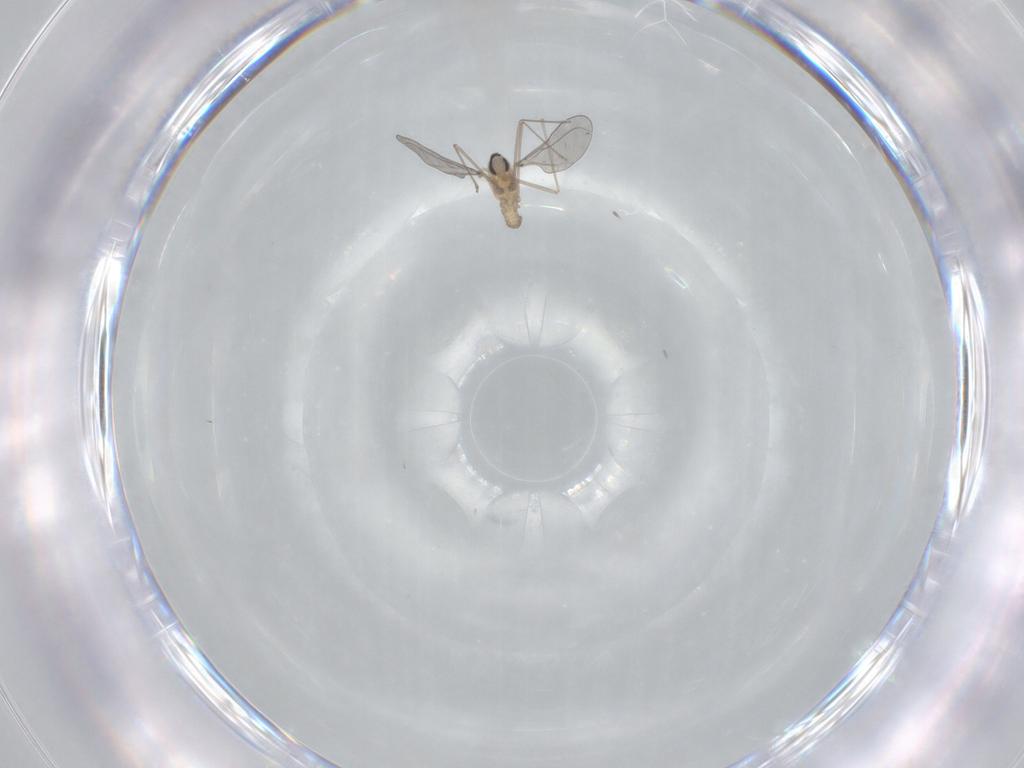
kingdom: Animalia
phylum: Arthropoda
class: Insecta
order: Diptera
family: Cecidomyiidae
